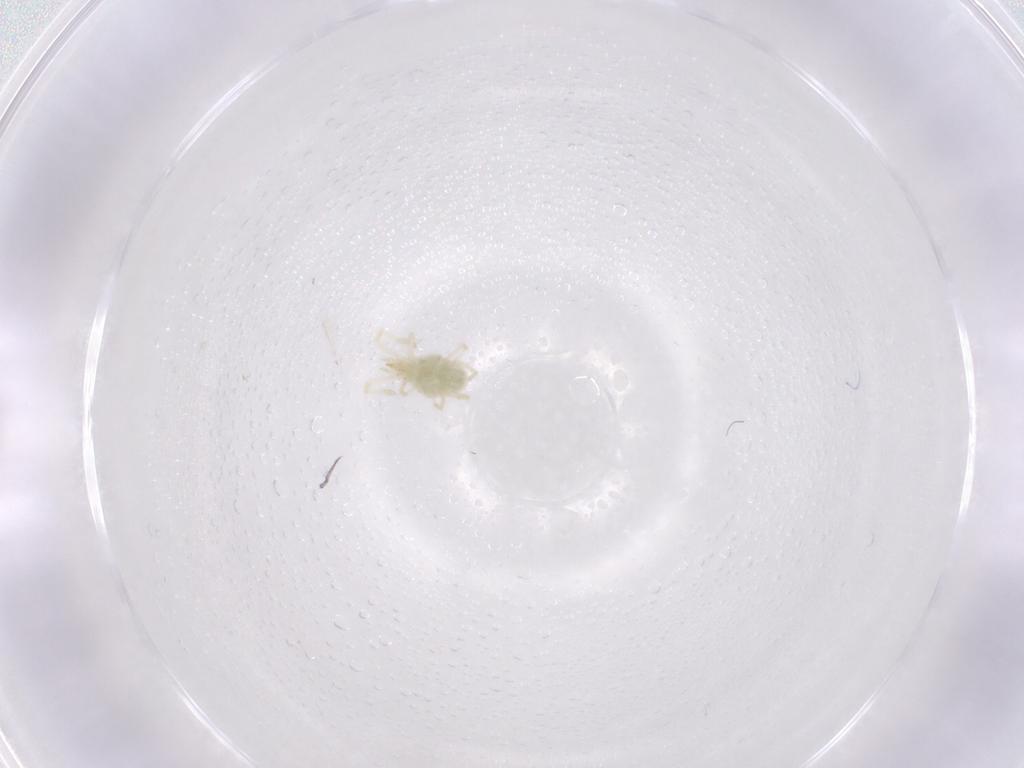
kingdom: Animalia
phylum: Arthropoda
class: Arachnida
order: Trombidiformes
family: Erythraeidae
